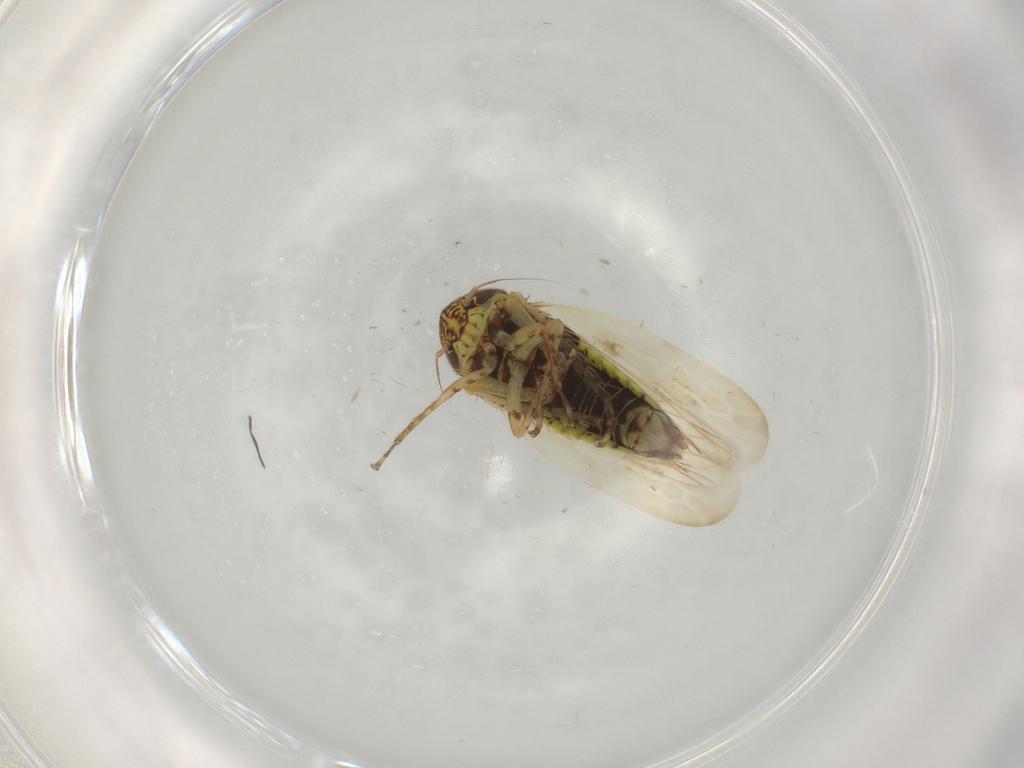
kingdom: Animalia
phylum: Arthropoda
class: Insecta
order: Hemiptera
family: Cicadellidae
